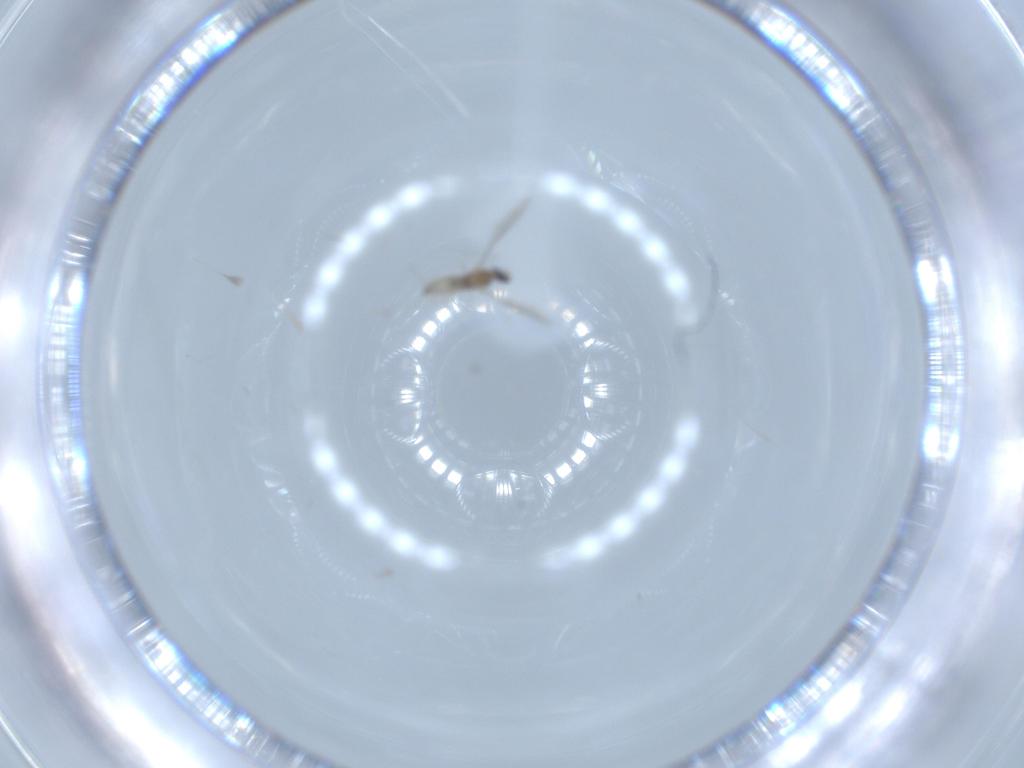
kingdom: Animalia
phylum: Arthropoda
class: Insecta
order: Diptera
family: Cecidomyiidae
